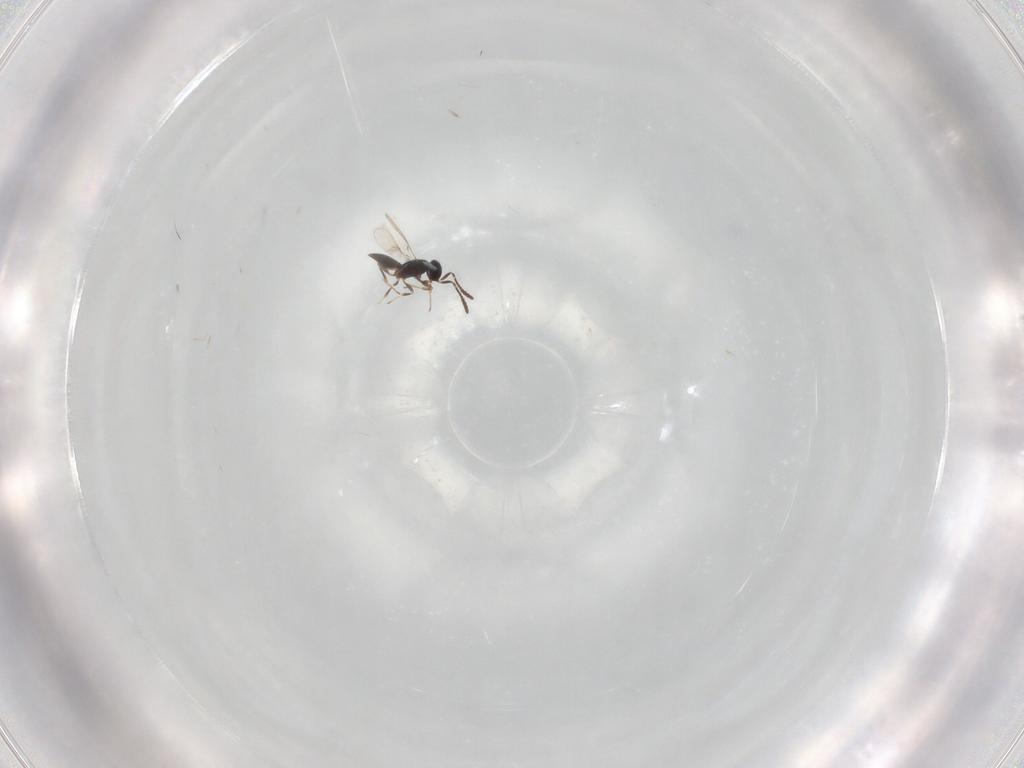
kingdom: Animalia
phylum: Arthropoda
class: Insecta
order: Hymenoptera
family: Scelionidae
